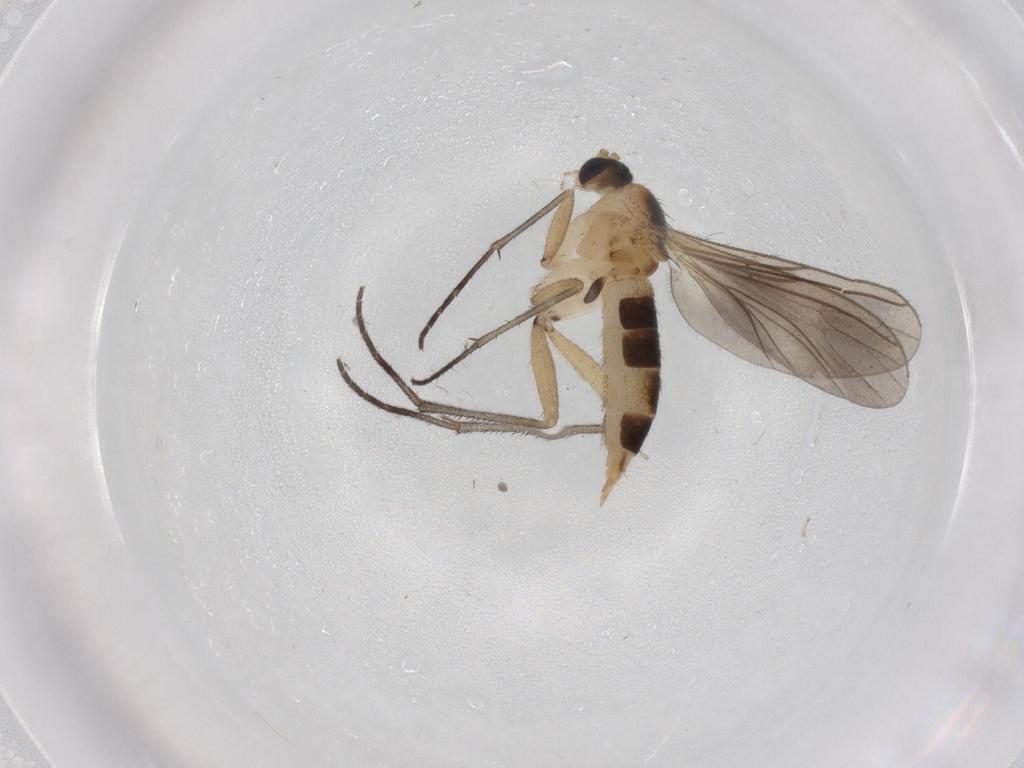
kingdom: Animalia
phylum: Arthropoda
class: Insecta
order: Diptera
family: Sciaridae
